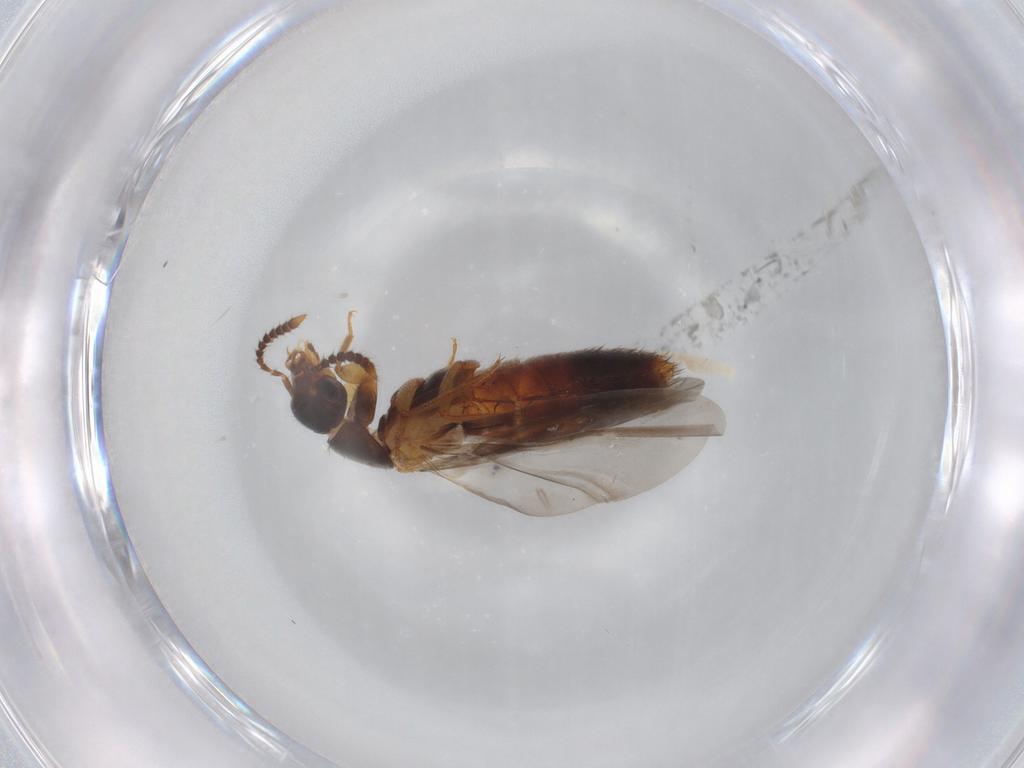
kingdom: Animalia
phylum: Arthropoda
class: Insecta
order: Coleoptera
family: Staphylinidae
